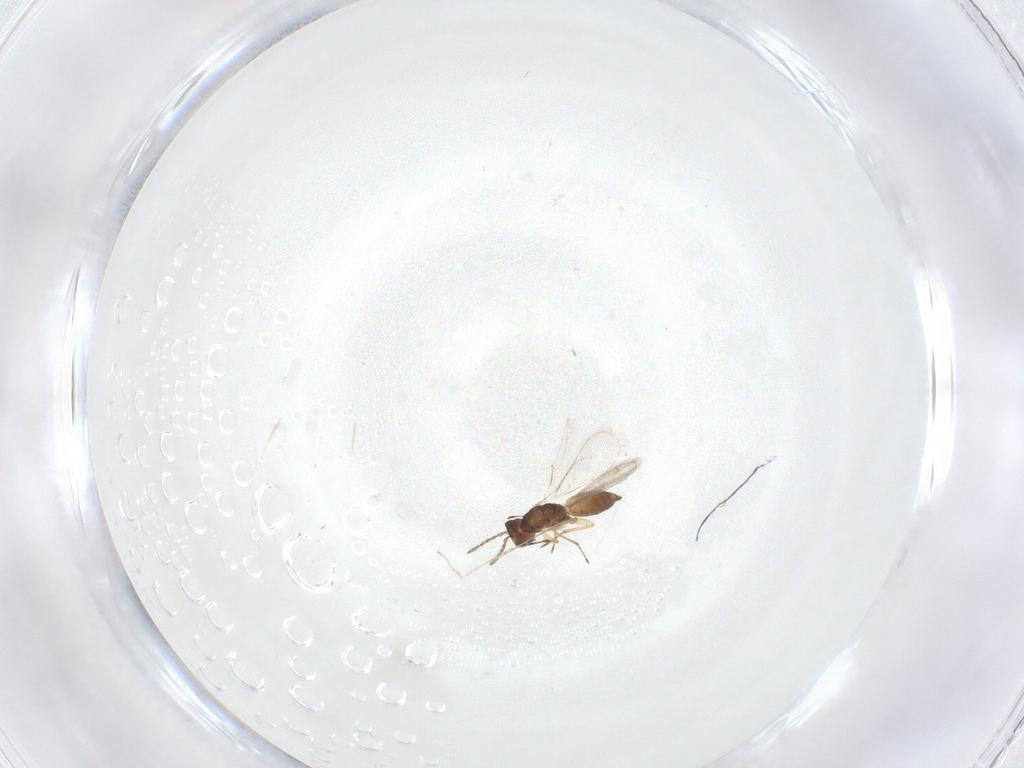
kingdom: Animalia
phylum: Arthropoda
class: Insecta
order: Hymenoptera
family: Eulophidae
